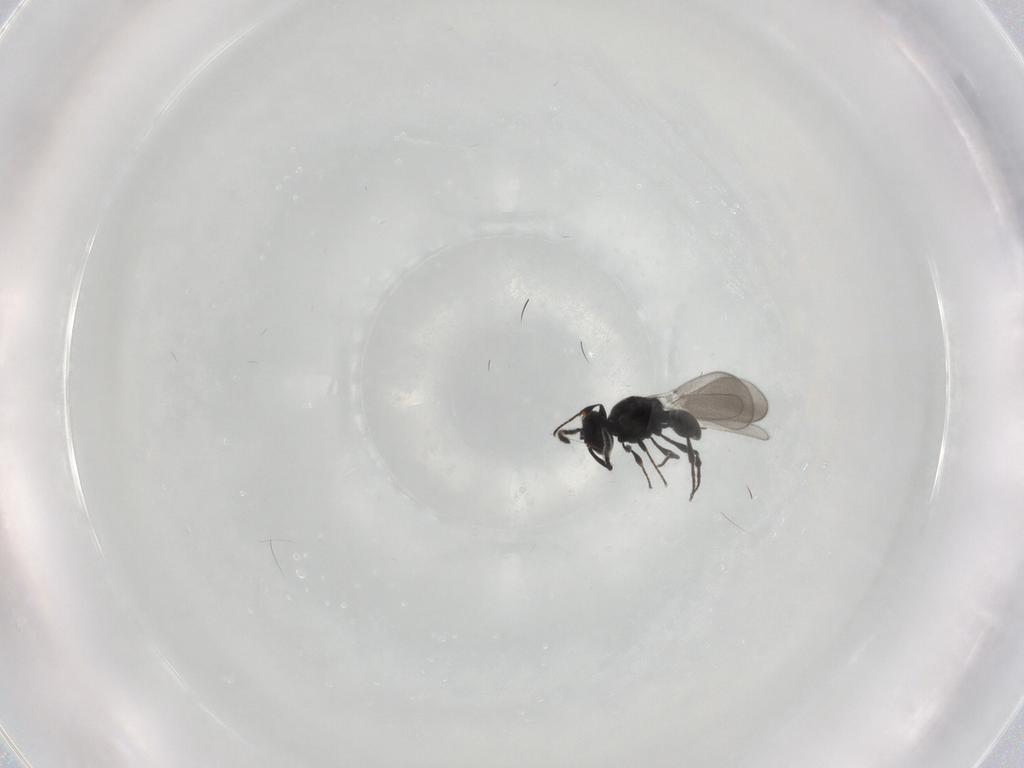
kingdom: Animalia
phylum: Arthropoda
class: Insecta
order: Diptera
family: Mythicomyiidae
